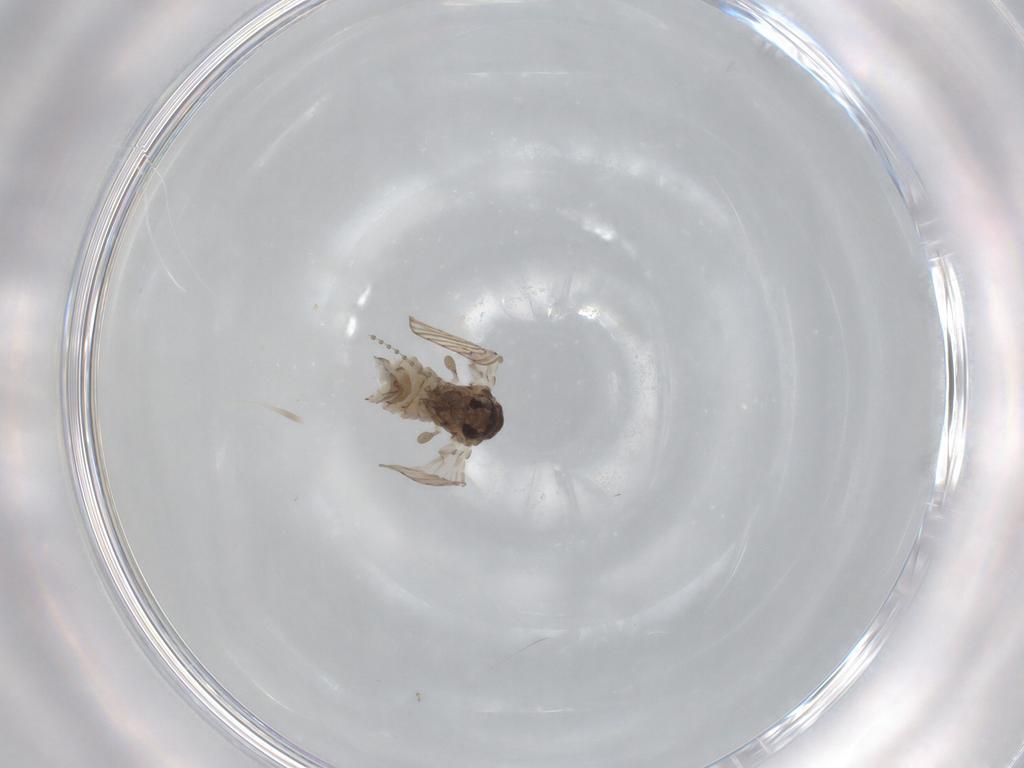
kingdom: Animalia
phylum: Arthropoda
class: Insecta
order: Diptera
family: Psychodidae
